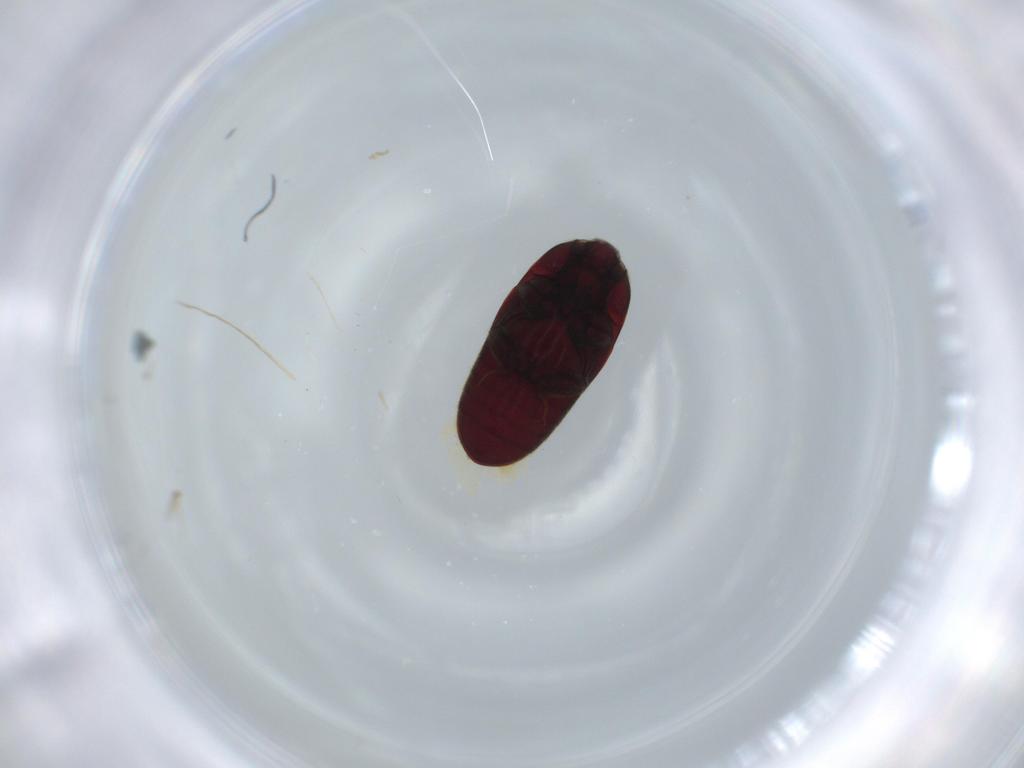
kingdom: Animalia
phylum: Arthropoda
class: Insecta
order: Coleoptera
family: Throscidae
